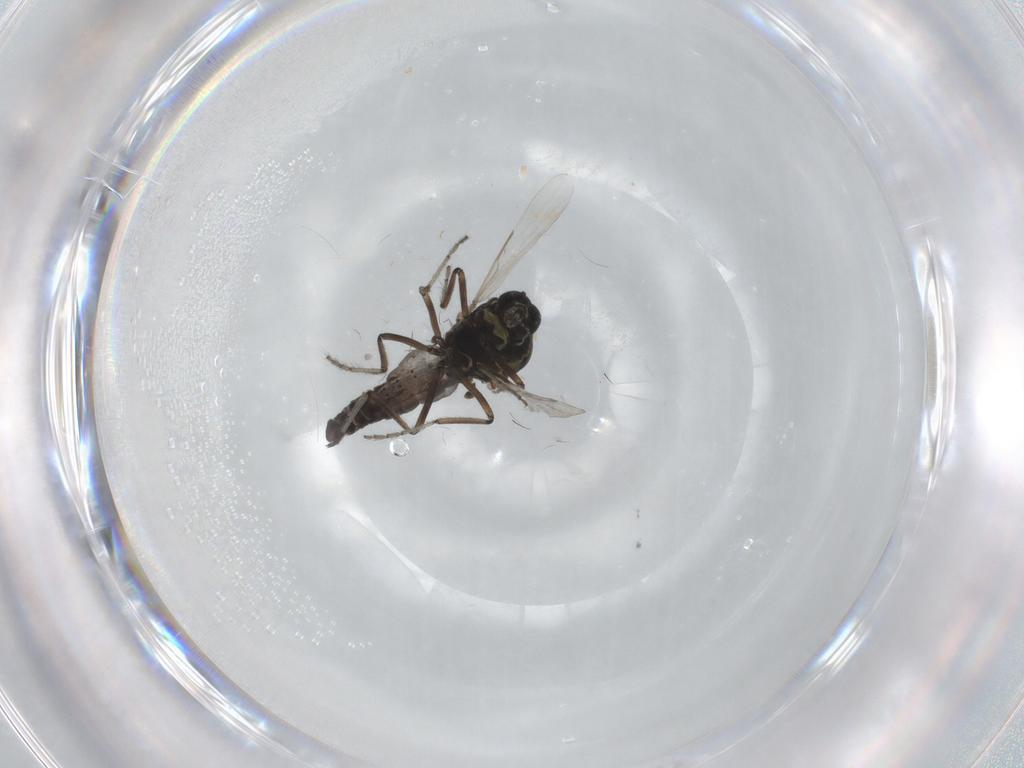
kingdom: Animalia
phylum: Arthropoda
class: Insecta
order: Diptera
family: Ceratopogonidae
